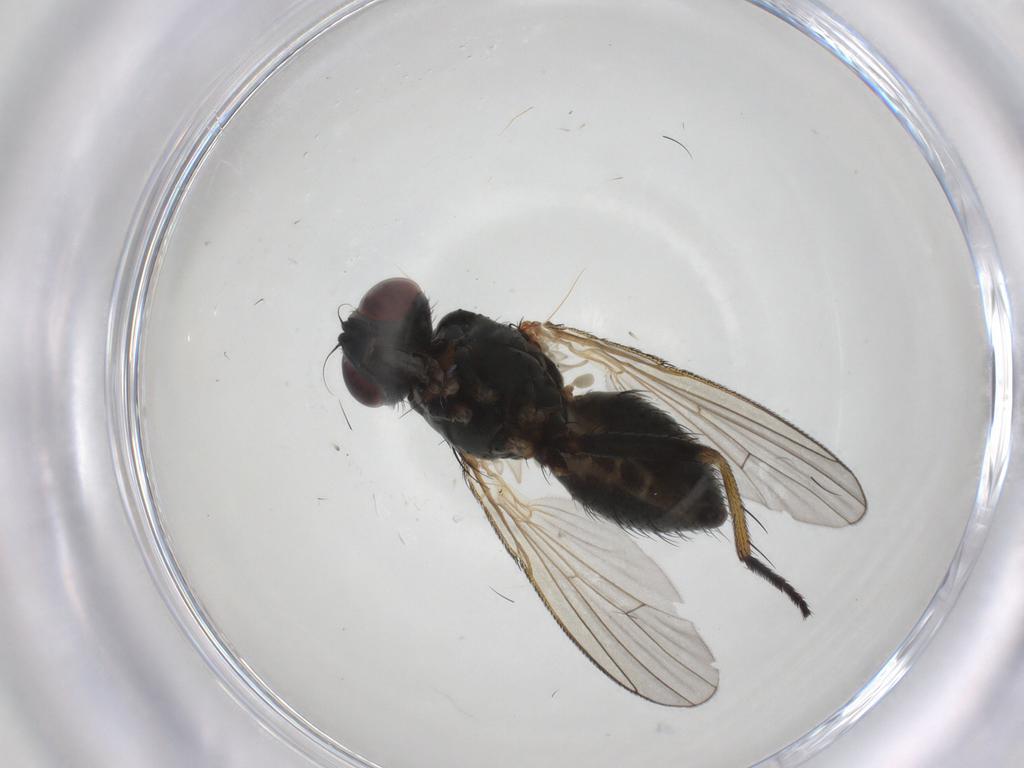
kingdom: Animalia
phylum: Arthropoda
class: Insecta
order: Diptera
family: Muscidae
